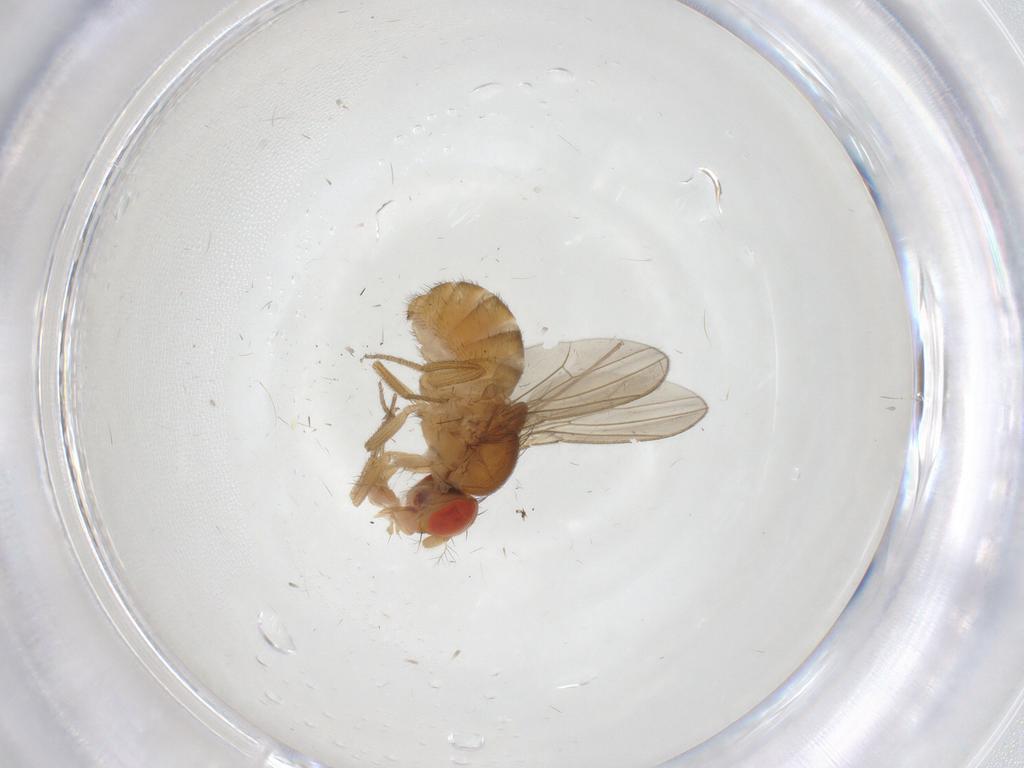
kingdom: Animalia
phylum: Arthropoda
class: Insecta
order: Diptera
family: Drosophilidae
